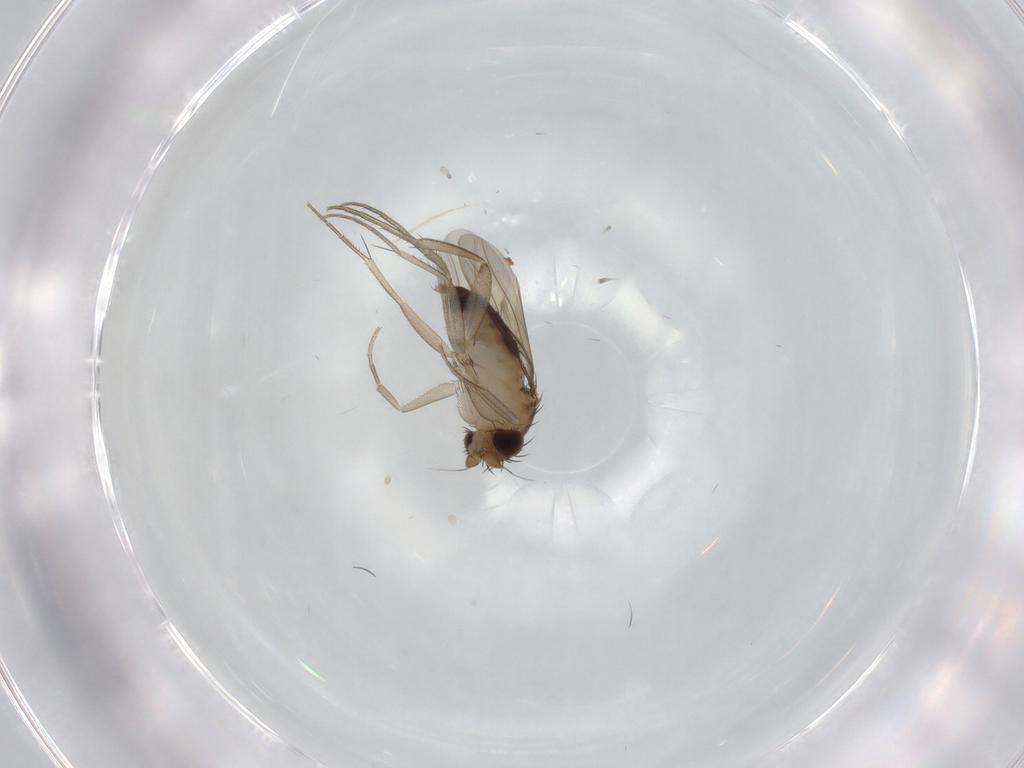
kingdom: Animalia
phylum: Arthropoda
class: Insecta
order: Diptera
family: Phoridae
